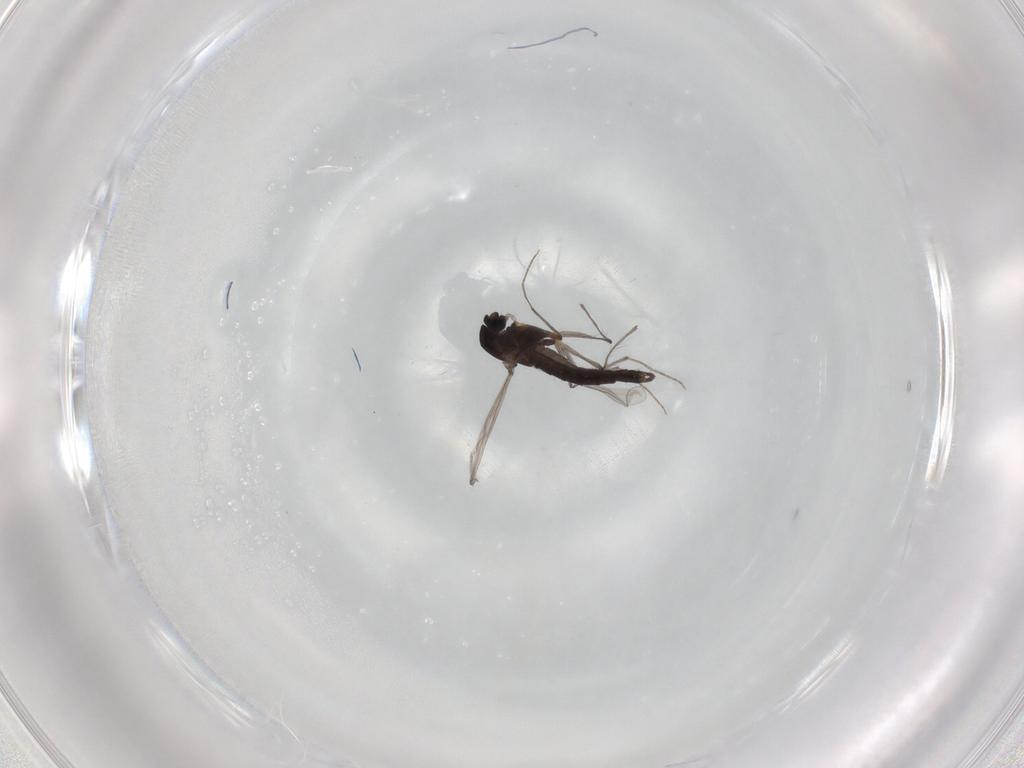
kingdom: Animalia
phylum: Arthropoda
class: Insecta
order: Diptera
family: Chironomidae
